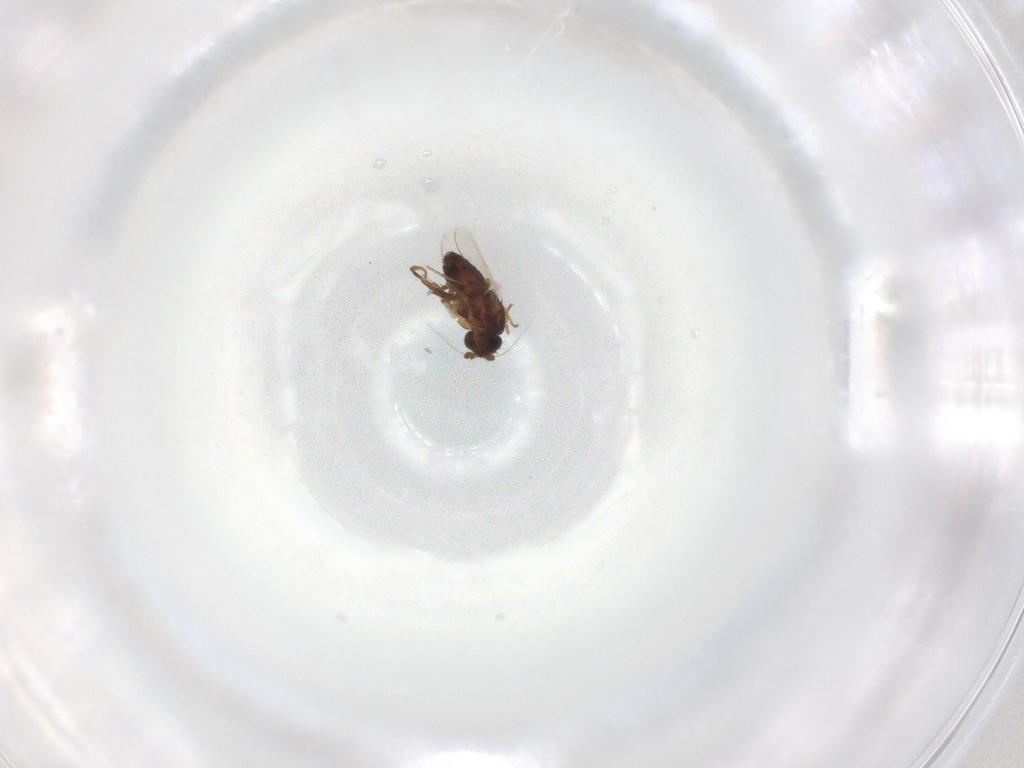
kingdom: Animalia
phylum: Arthropoda
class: Insecta
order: Diptera
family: Sphaeroceridae
